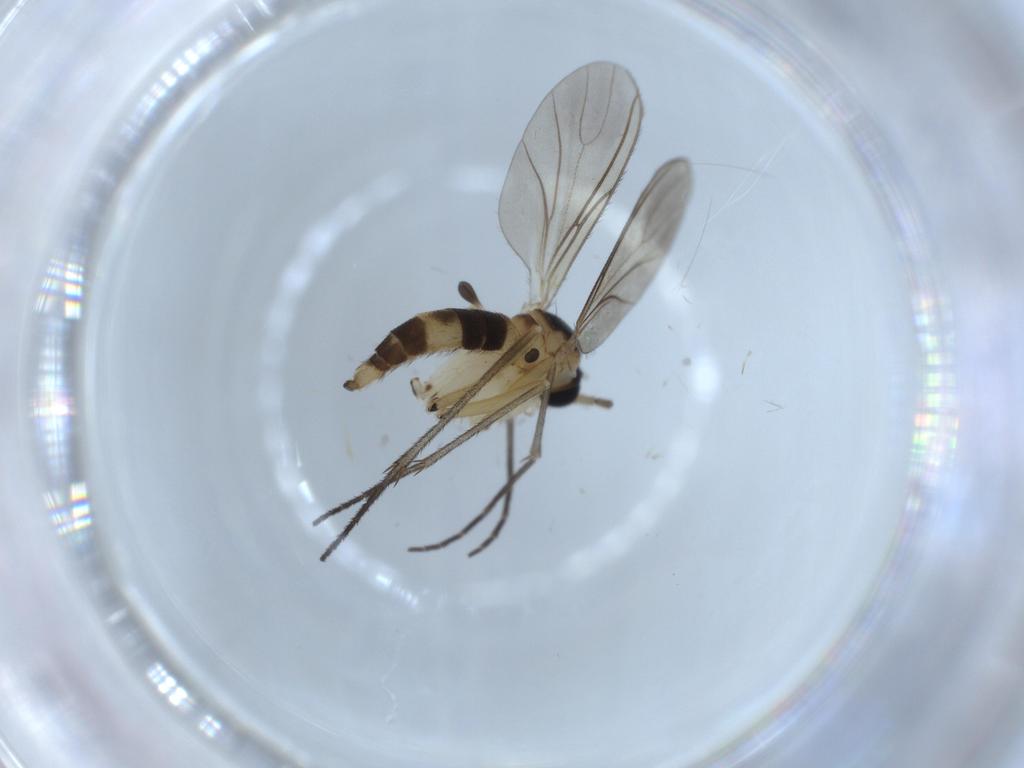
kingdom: Animalia
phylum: Arthropoda
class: Insecta
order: Diptera
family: Sciaridae
